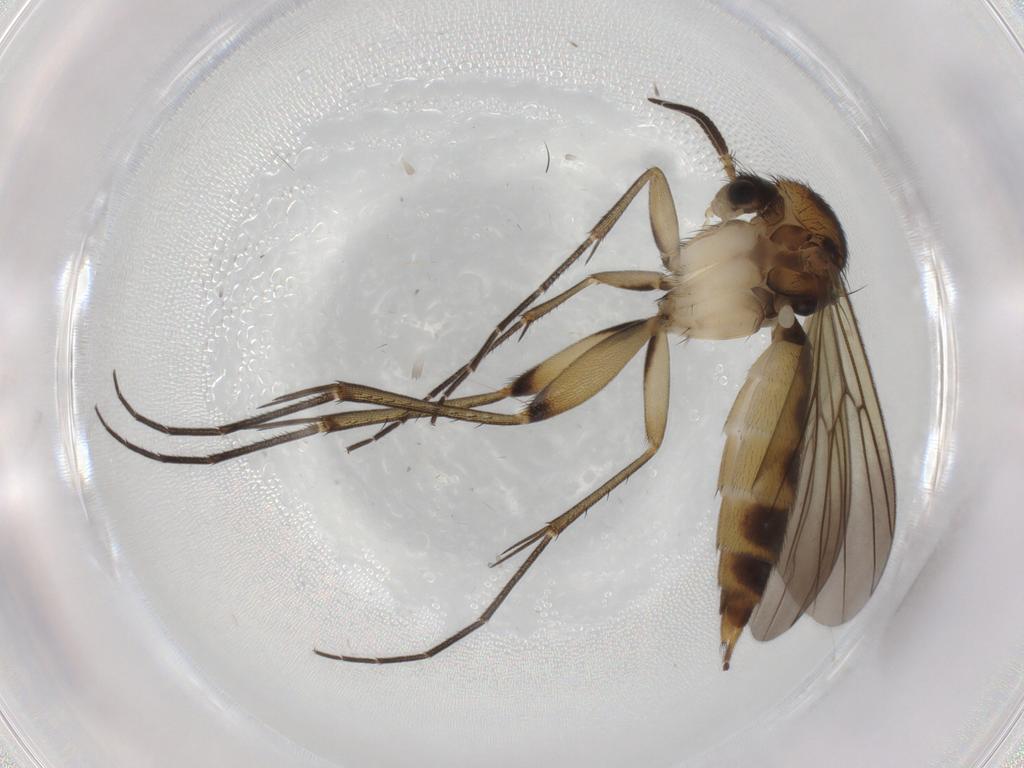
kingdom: Animalia
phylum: Arthropoda
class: Insecta
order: Diptera
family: Mycetophilidae
